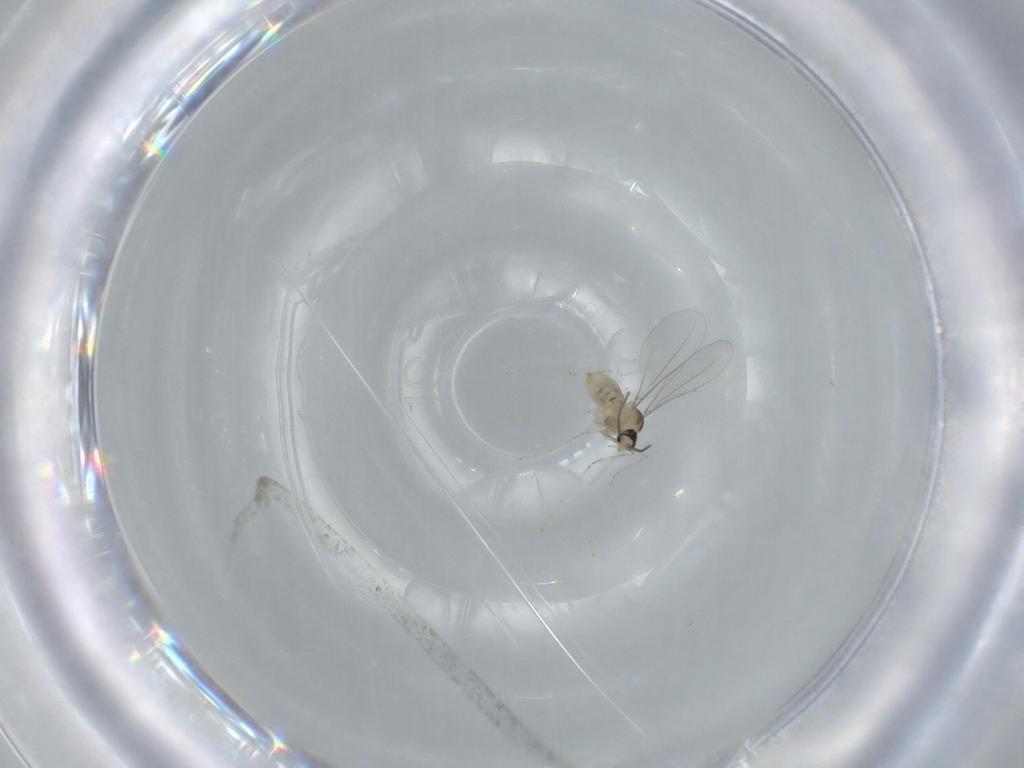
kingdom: Animalia
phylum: Arthropoda
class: Insecta
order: Diptera
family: Cecidomyiidae
